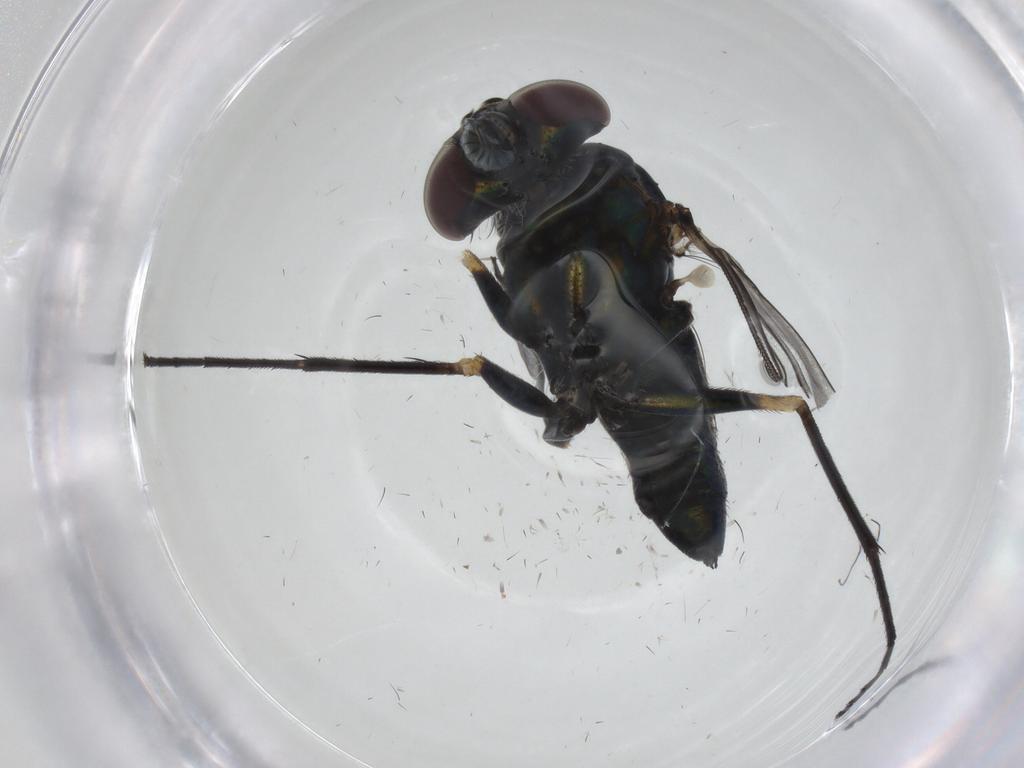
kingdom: Animalia
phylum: Arthropoda
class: Insecta
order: Diptera
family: Dolichopodidae
